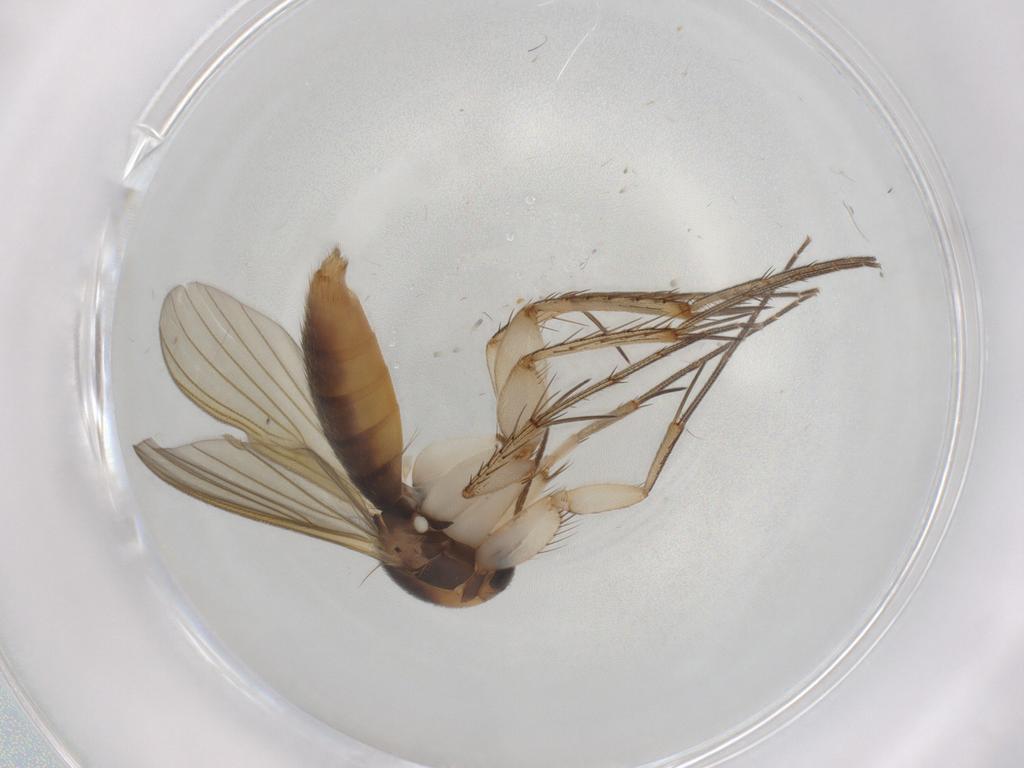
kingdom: Animalia
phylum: Arthropoda
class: Insecta
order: Diptera
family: Mycetophilidae
